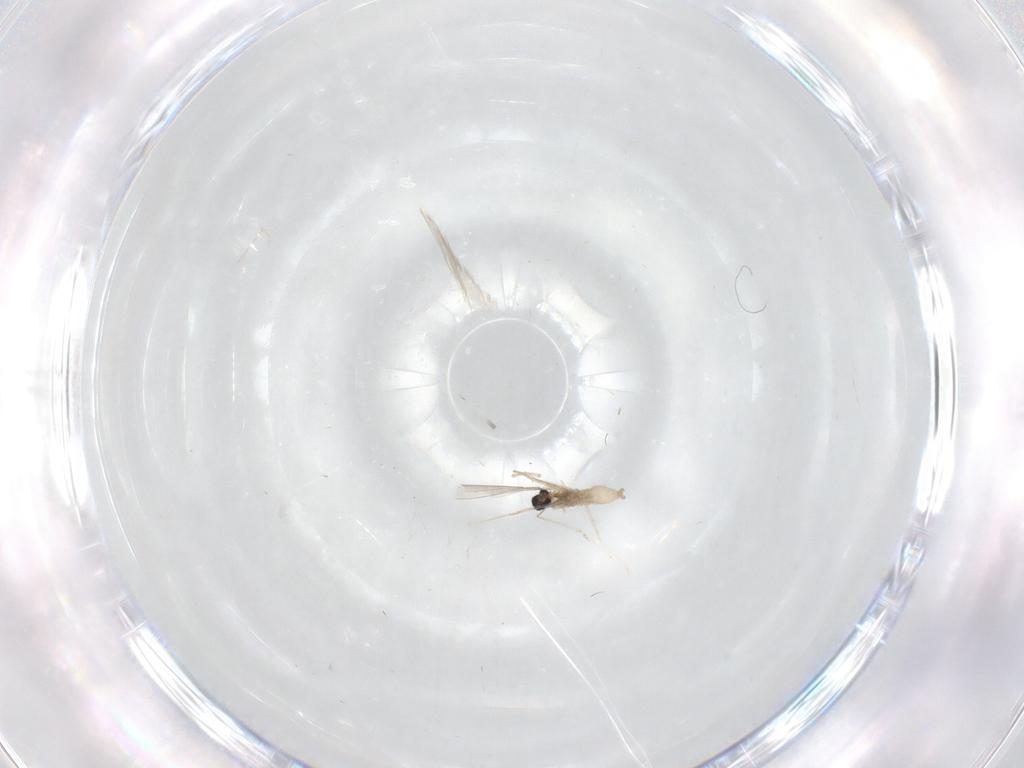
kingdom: Animalia
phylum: Arthropoda
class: Insecta
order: Diptera
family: Cecidomyiidae
